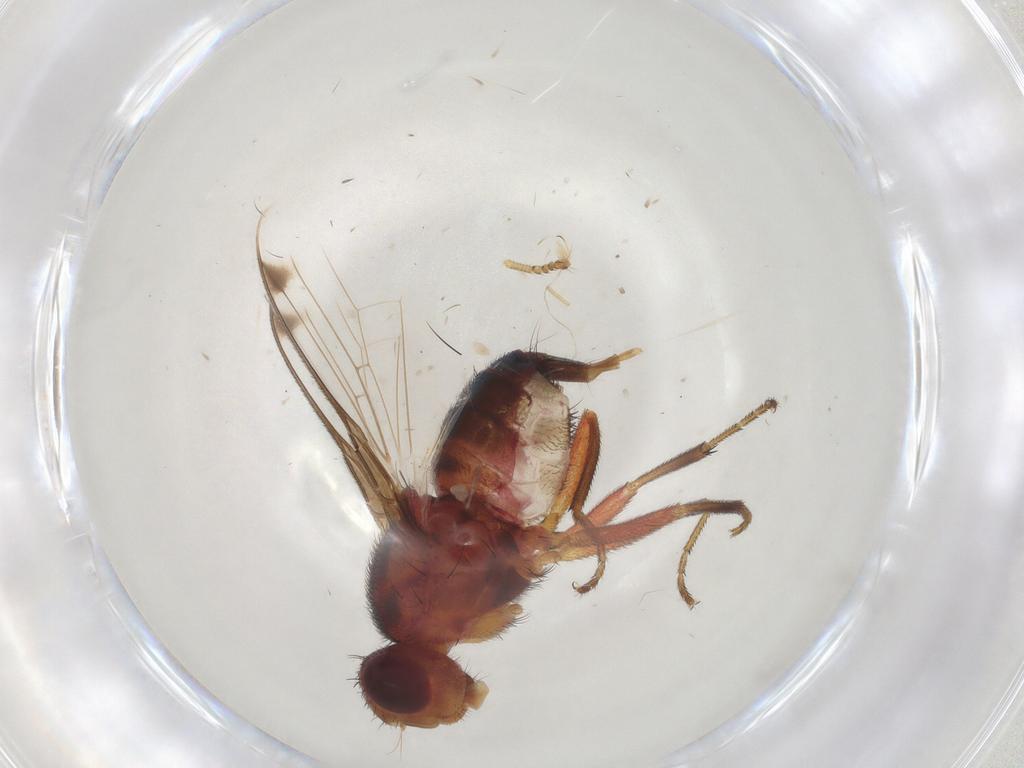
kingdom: Animalia
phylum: Arthropoda
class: Insecta
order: Diptera
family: Richardiidae
